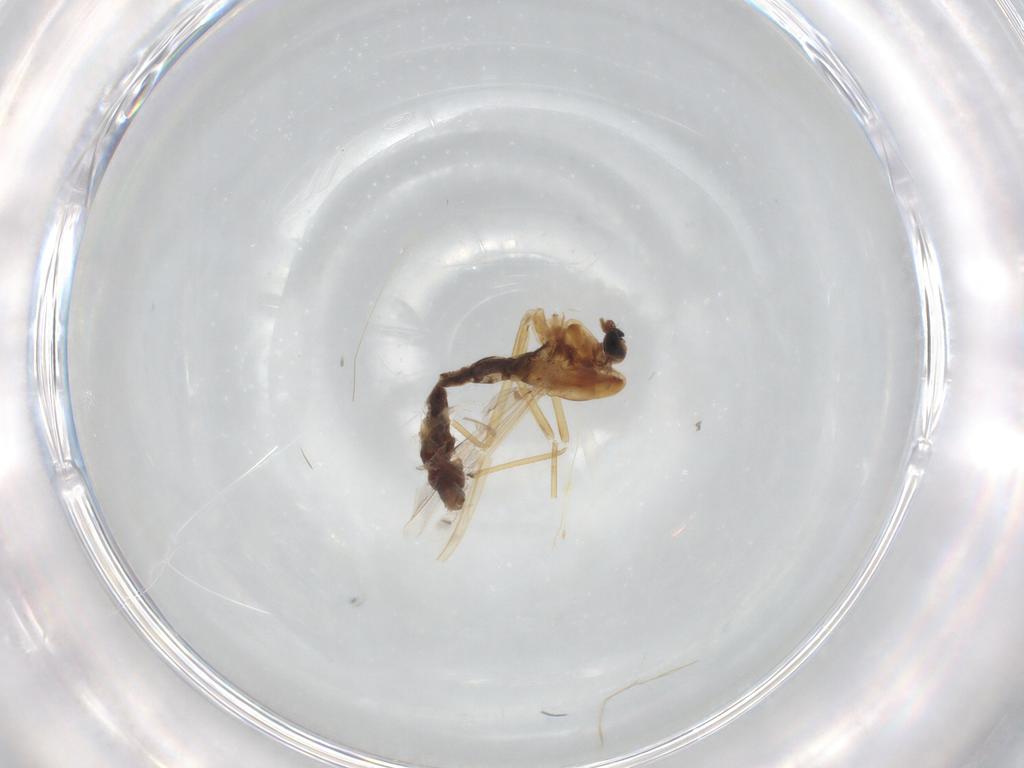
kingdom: Animalia
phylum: Arthropoda
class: Insecta
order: Diptera
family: Chironomidae
